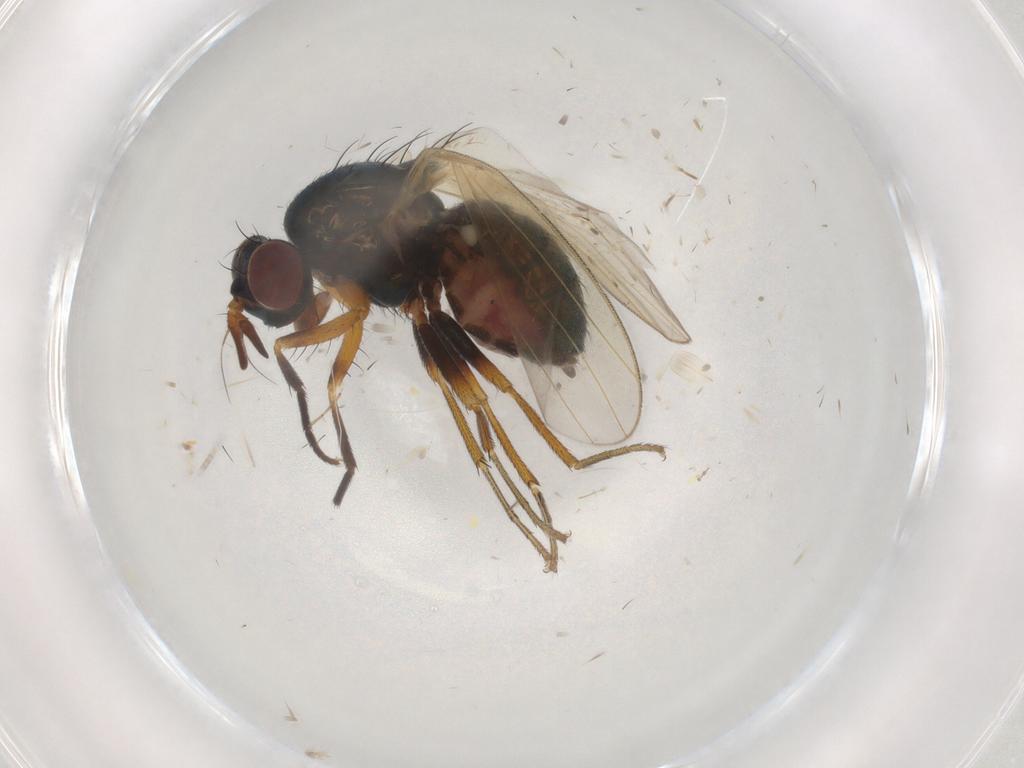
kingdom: Animalia
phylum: Arthropoda
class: Insecta
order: Diptera
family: Lauxaniidae
